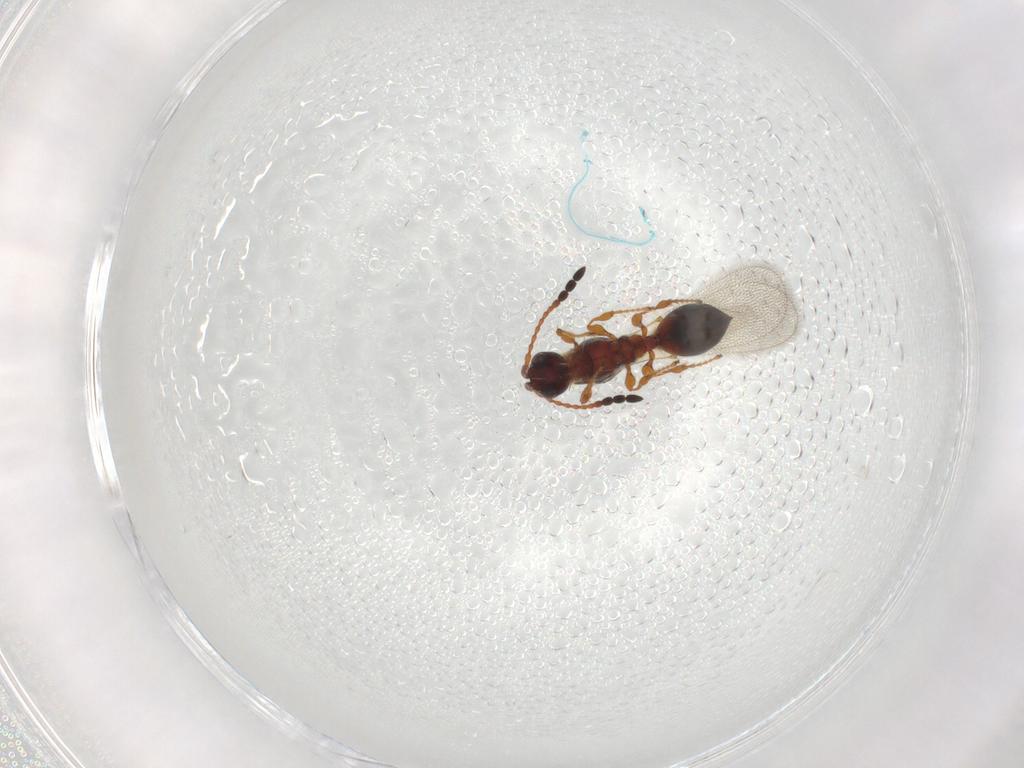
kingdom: Animalia
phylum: Arthropoda
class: Insecta
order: Hymenoptera
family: Diapriidae
